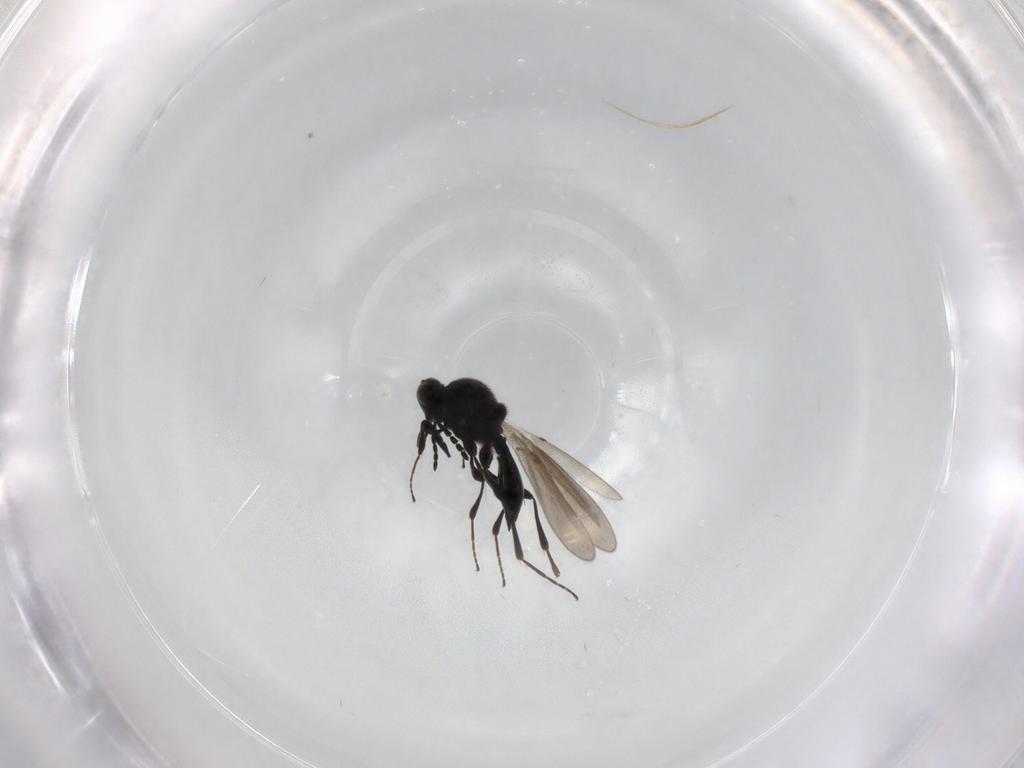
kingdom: Animalia
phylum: Arthropoda
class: Insecta
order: Hymenoptera
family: Platygastridae
